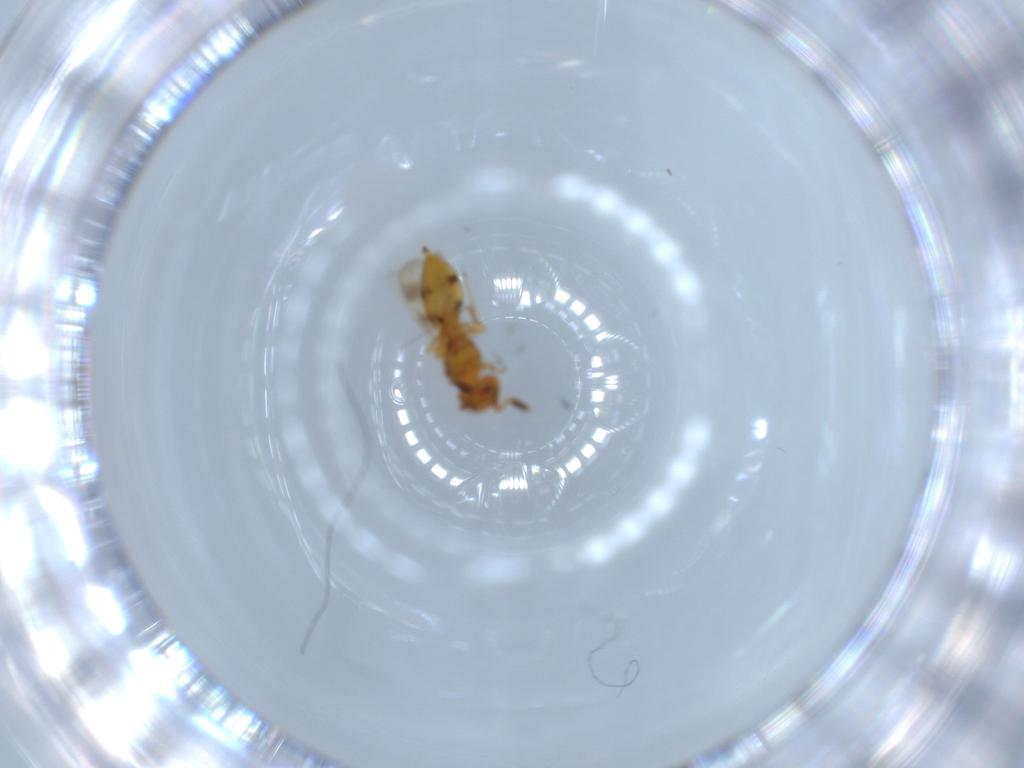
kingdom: Animalia
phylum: Arthropoda
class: Insecta
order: Hymenoptera
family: Scelionidae
